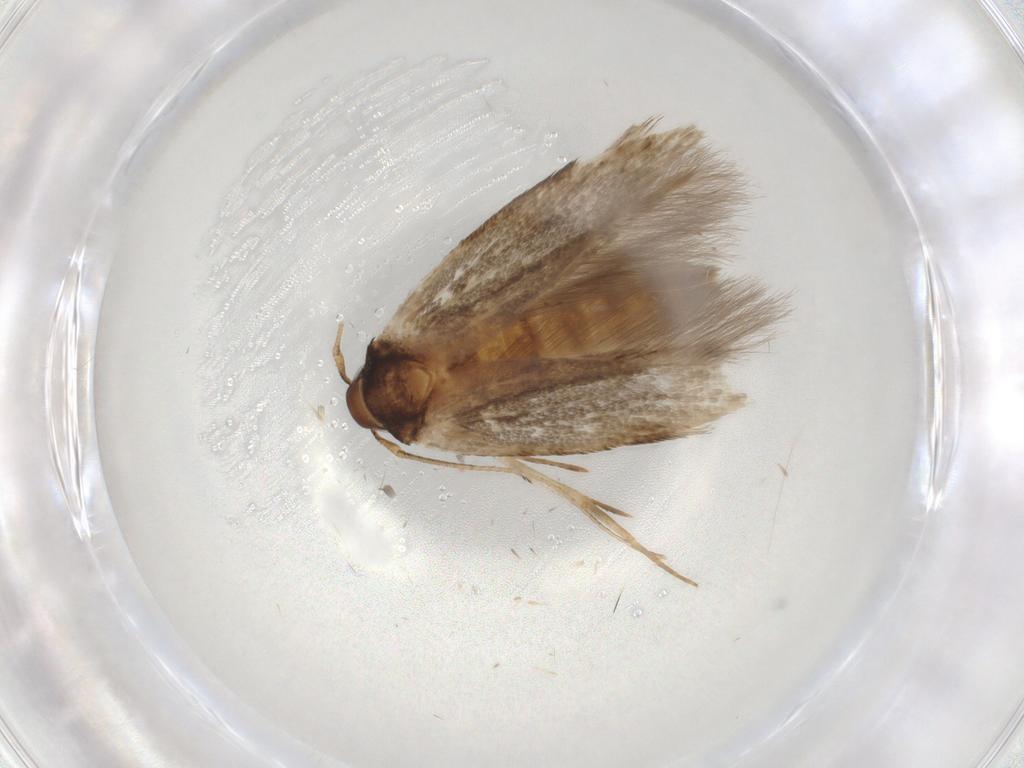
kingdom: Animalia
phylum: Arthropoda
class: Insecta
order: Lepidoptera
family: Cosmopterigidae
